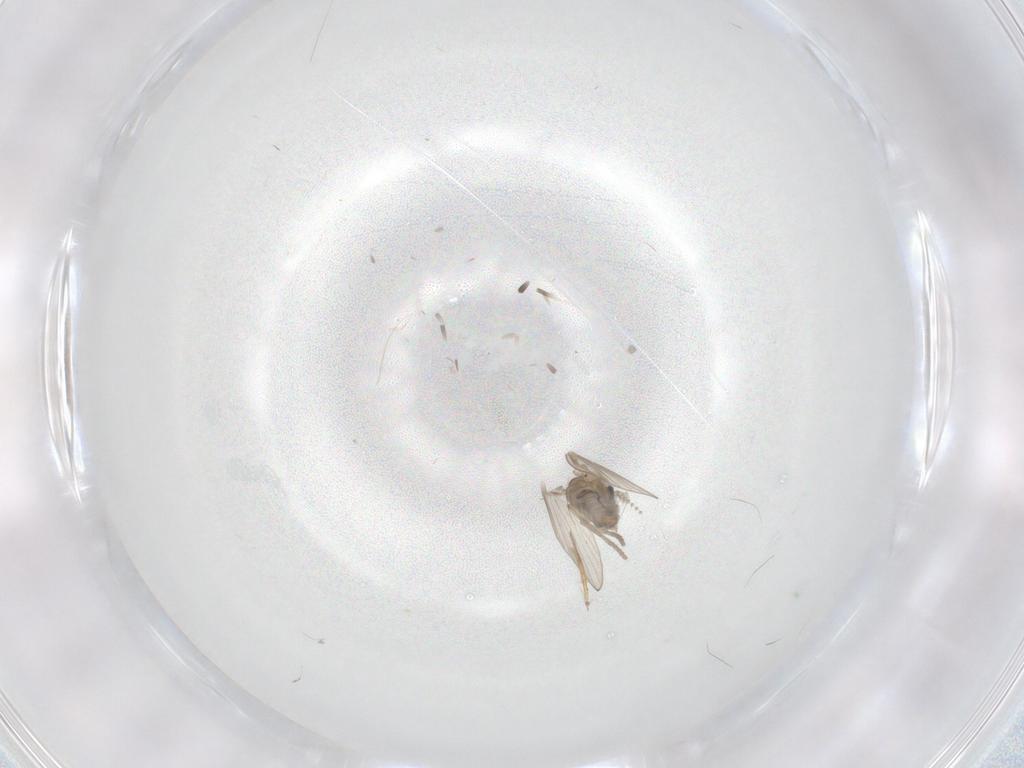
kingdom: Animalia
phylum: Arthropoda
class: Insecta
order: Diptera
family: Psychodidae
